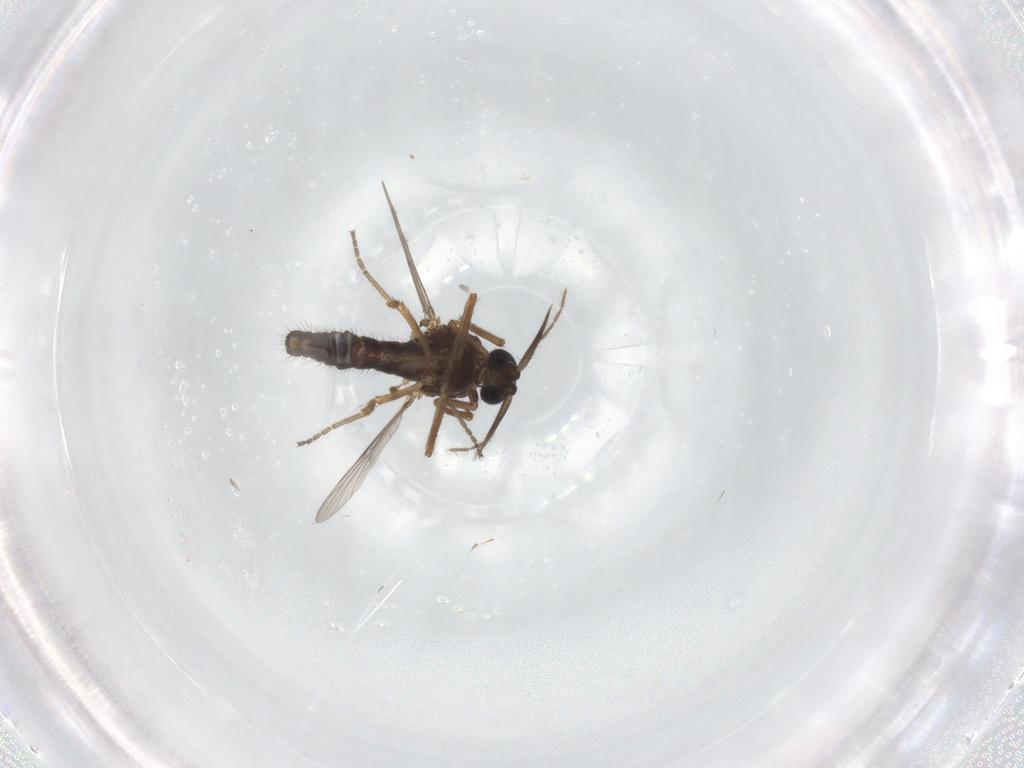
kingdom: Animalia
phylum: Arthropoda
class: Insecta
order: Diptera
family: Ceratopogonidae
